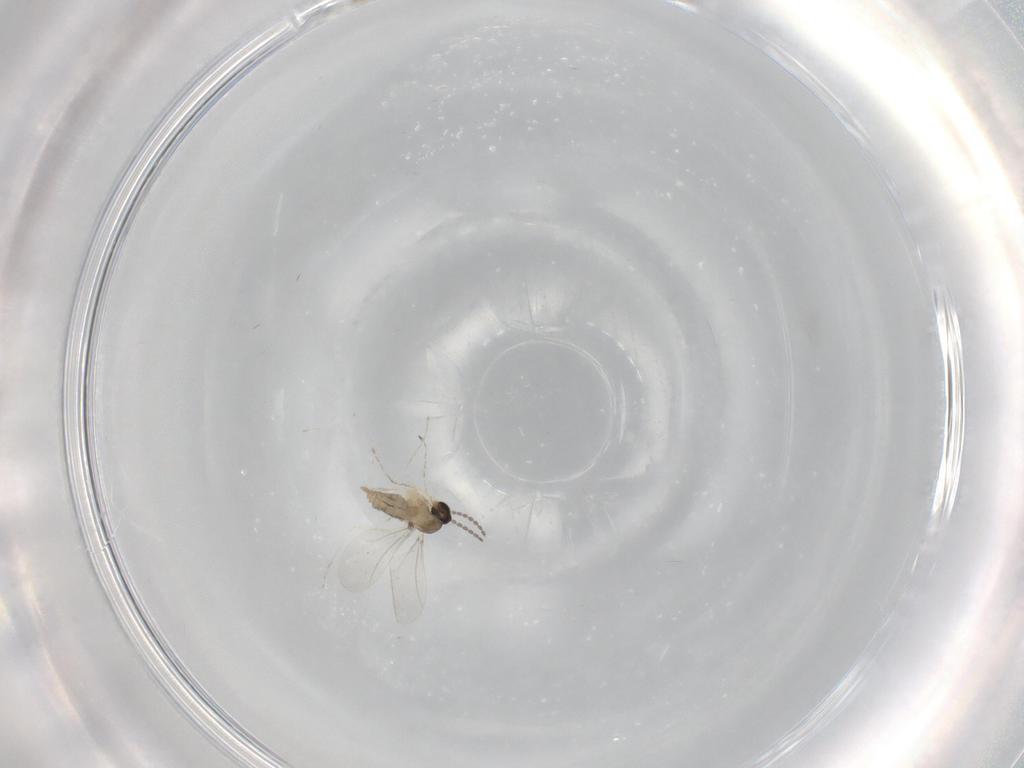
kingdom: Animalia
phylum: Arthropoda
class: Insecta
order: Diptera
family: Cecidomyiidae
